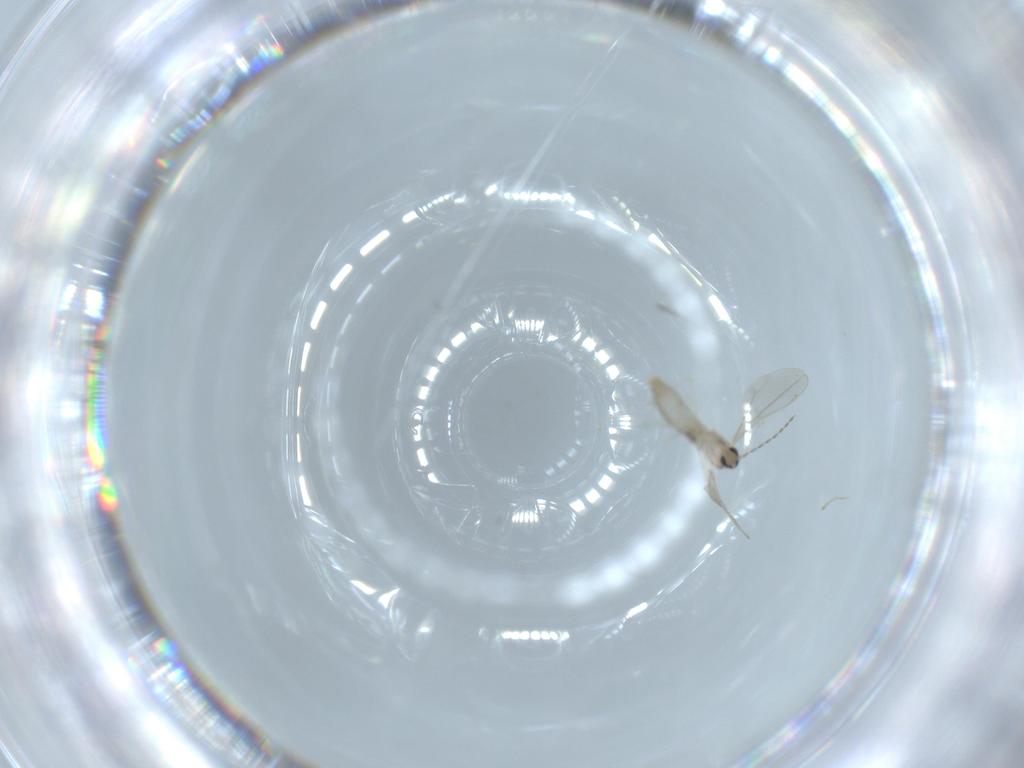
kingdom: Animalia
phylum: Arthropoda
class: Insecta
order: Diptera
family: Cecidomyiidae
